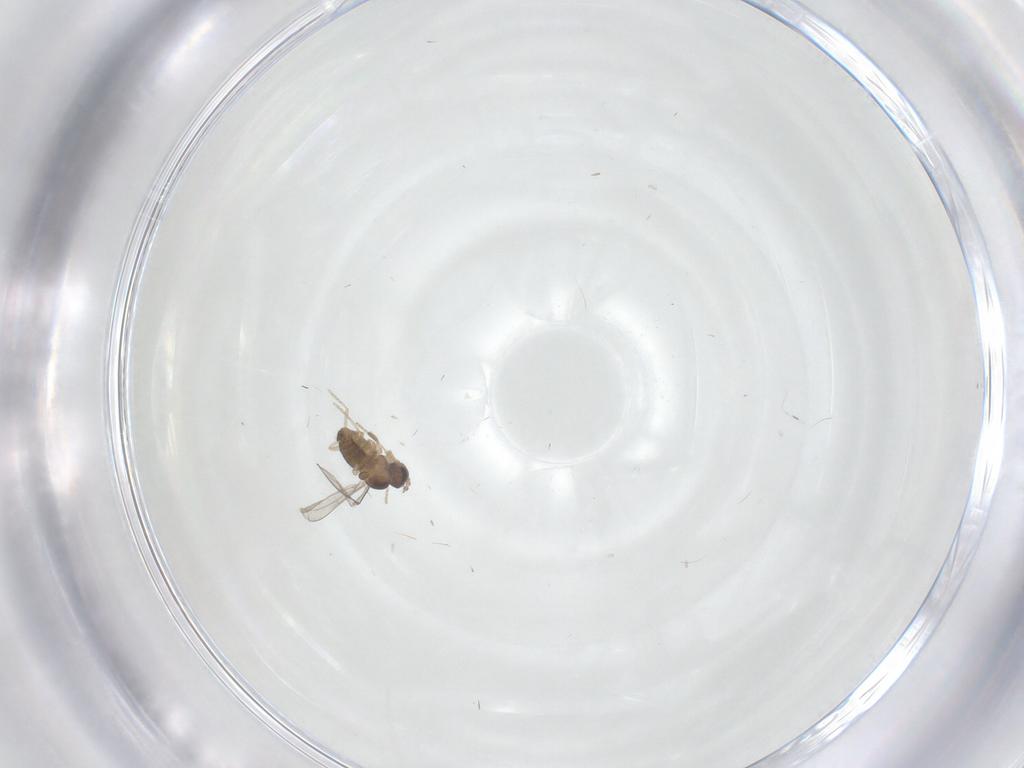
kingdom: Animalia
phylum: Arthropoda
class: Insecta
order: Diptera
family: Cecidomyiidae
